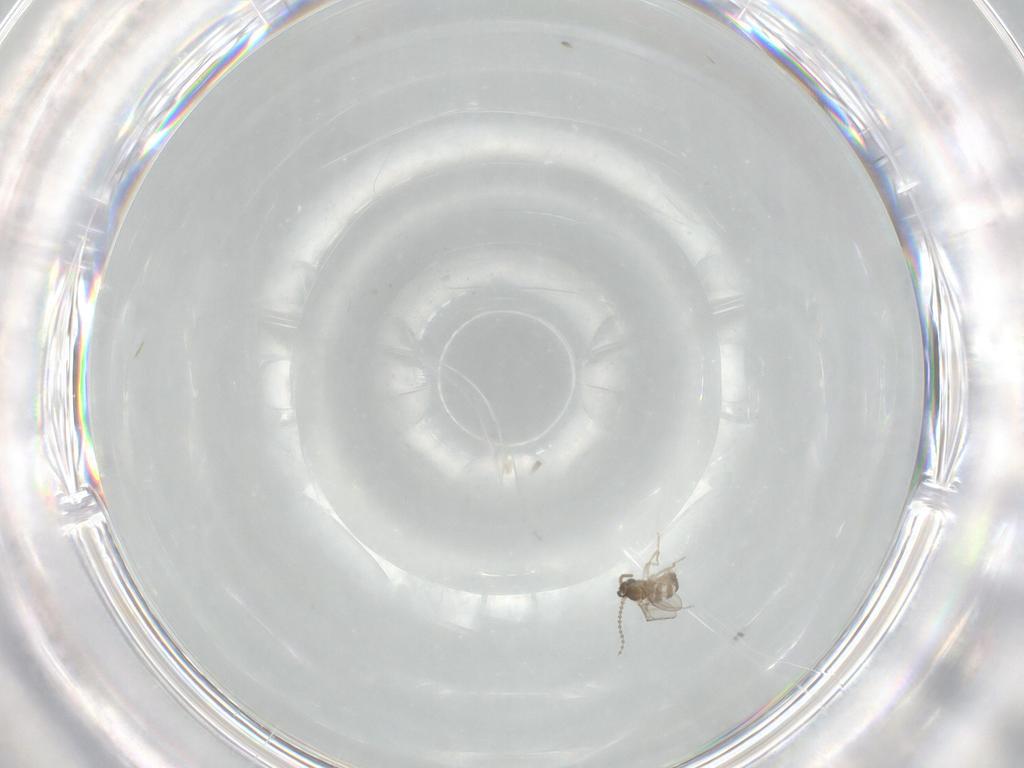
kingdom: Animalia
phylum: Arthropoda
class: Insecta
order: Diptera
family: Cecidomyiidae
